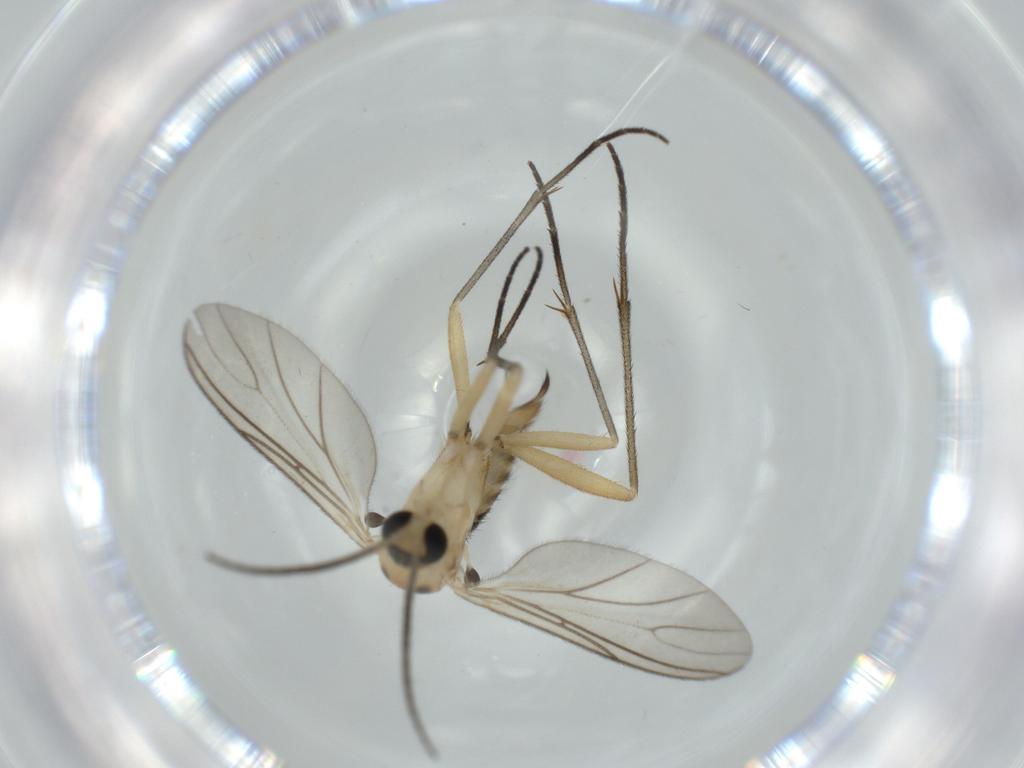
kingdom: Animalia
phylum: Arthropoda
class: Insecta
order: Diptera
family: Sciaridae
